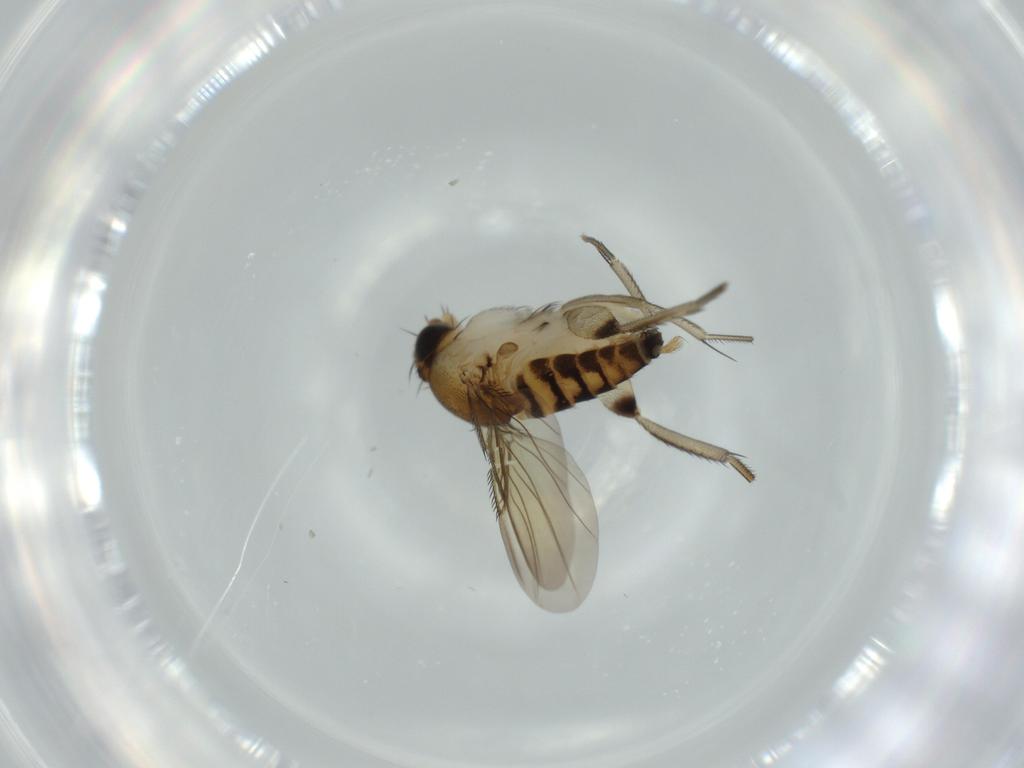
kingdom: Animalia
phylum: Arthropoda
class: Insecta
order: Diptera
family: Phoridae
